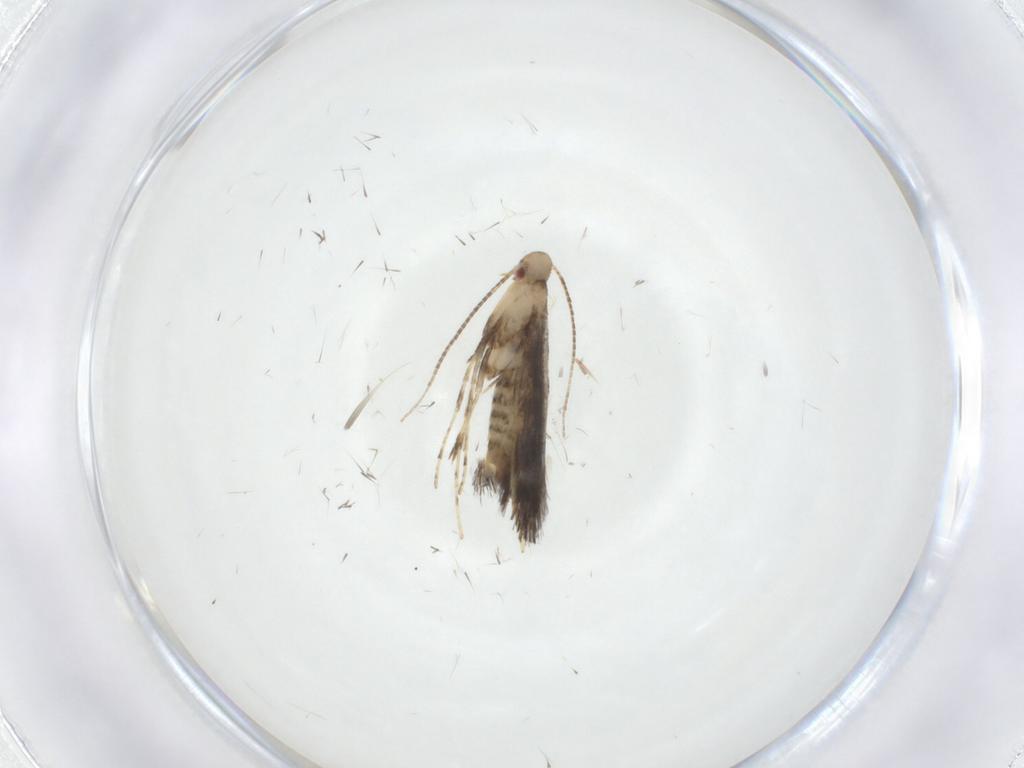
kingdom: Animalia
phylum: Arthropoda
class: Insecta
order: Lepidoptera
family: Gracillariidae
